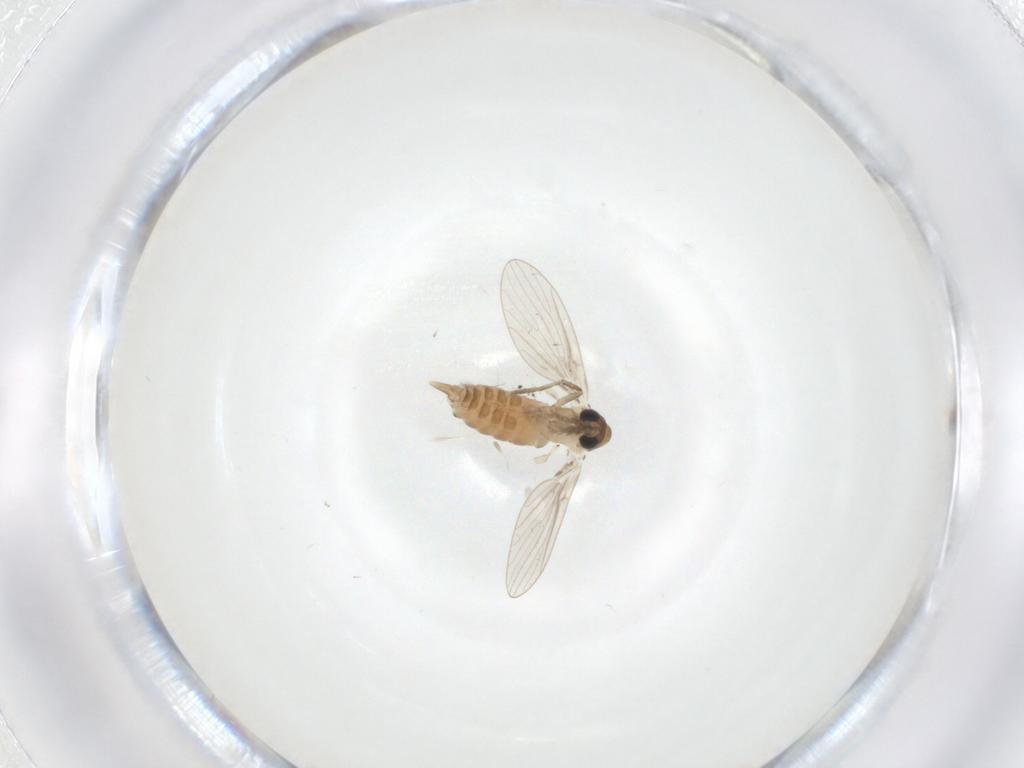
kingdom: Animalia
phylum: Arthropoda
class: Insecta
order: Diptera
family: Psychodidae
